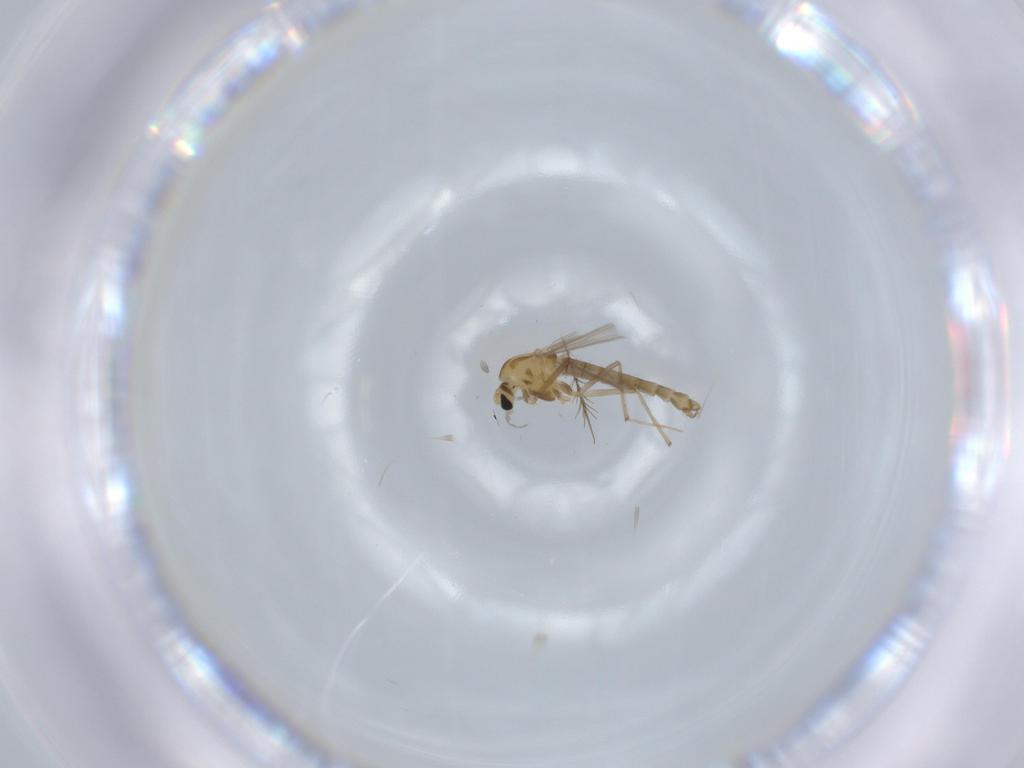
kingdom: Animalia
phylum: Arthropoda
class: Insecta
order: Diptera
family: Chironomidae
